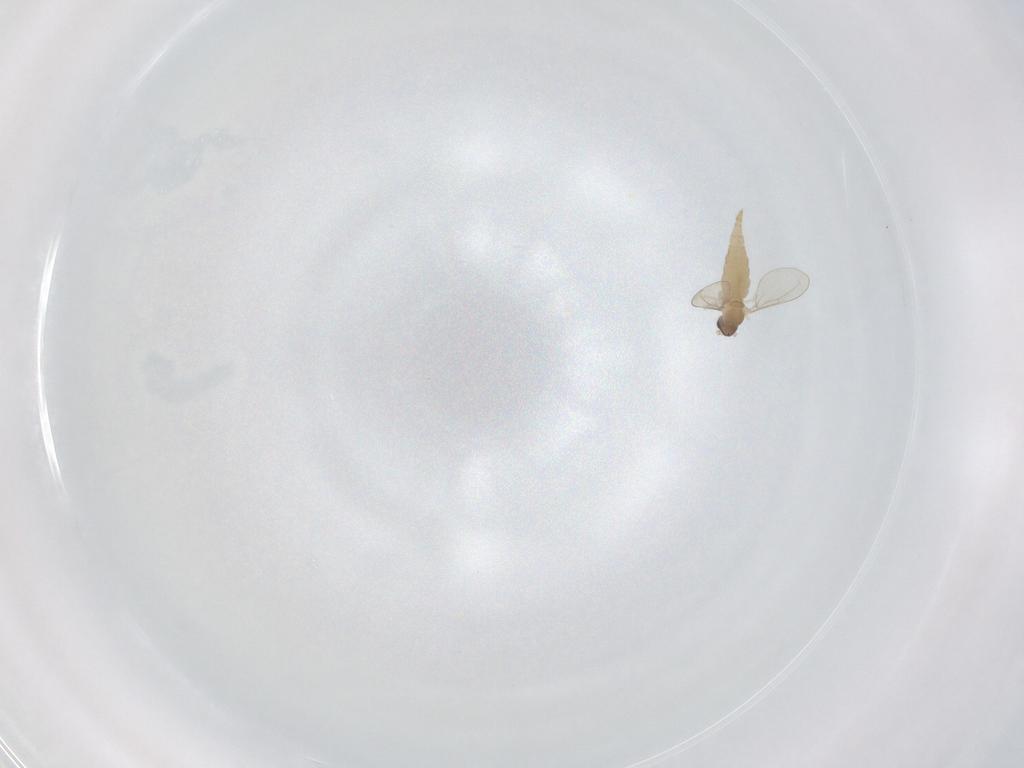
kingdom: Animalia
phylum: Arthropoda
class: Insecta
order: Diptera
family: Cecidomyiidae
